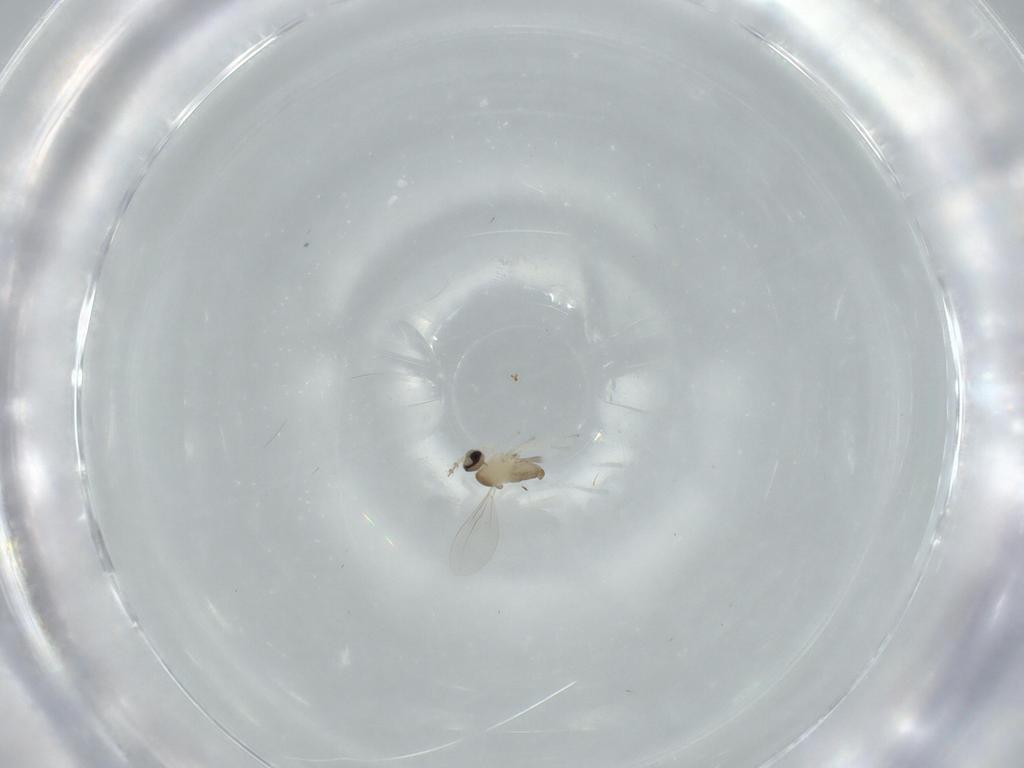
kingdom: Animalia
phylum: Arthropoda
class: Insecta
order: Diptera
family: Cecidomyiidae
